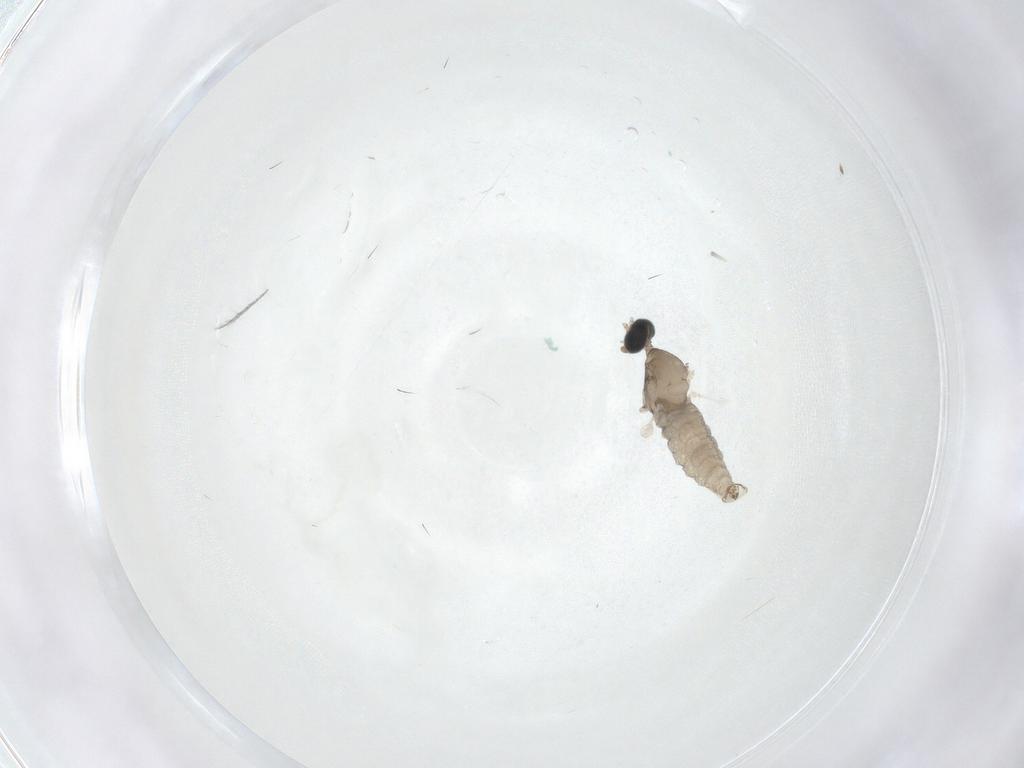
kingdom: Animalia
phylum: Arthropoda
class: Insecta
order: Diptera
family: Cecidomyiidae
